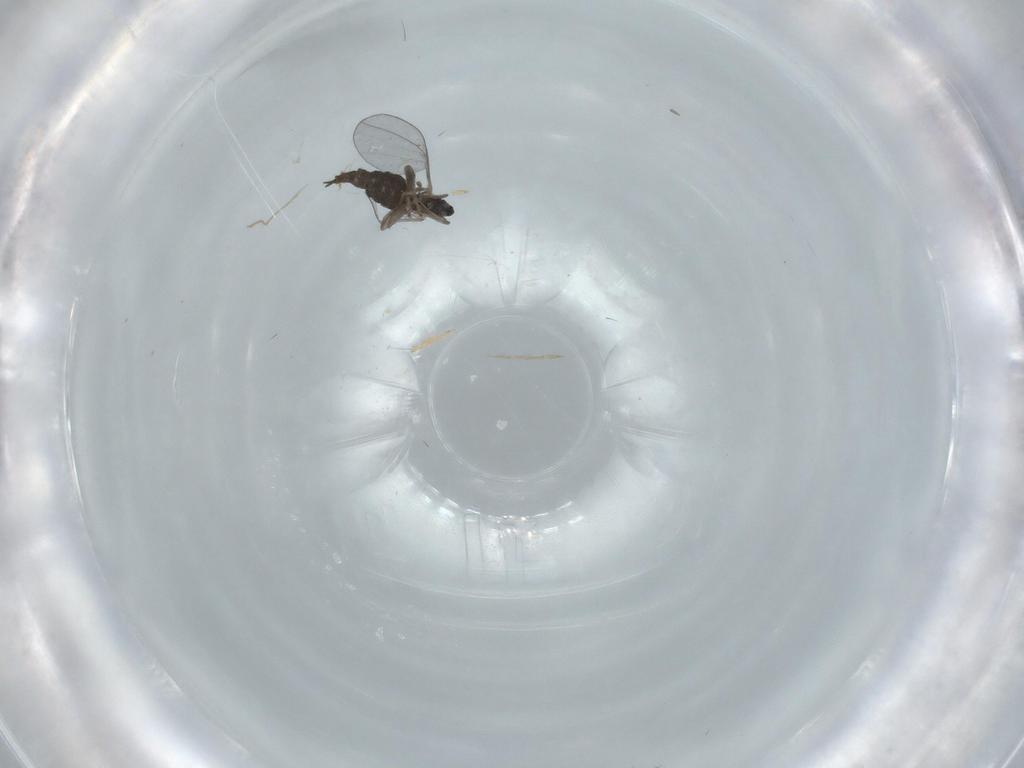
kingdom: Animalia
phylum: Arthropoda
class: Insecta
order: Diptera
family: Cecidomyiidae
